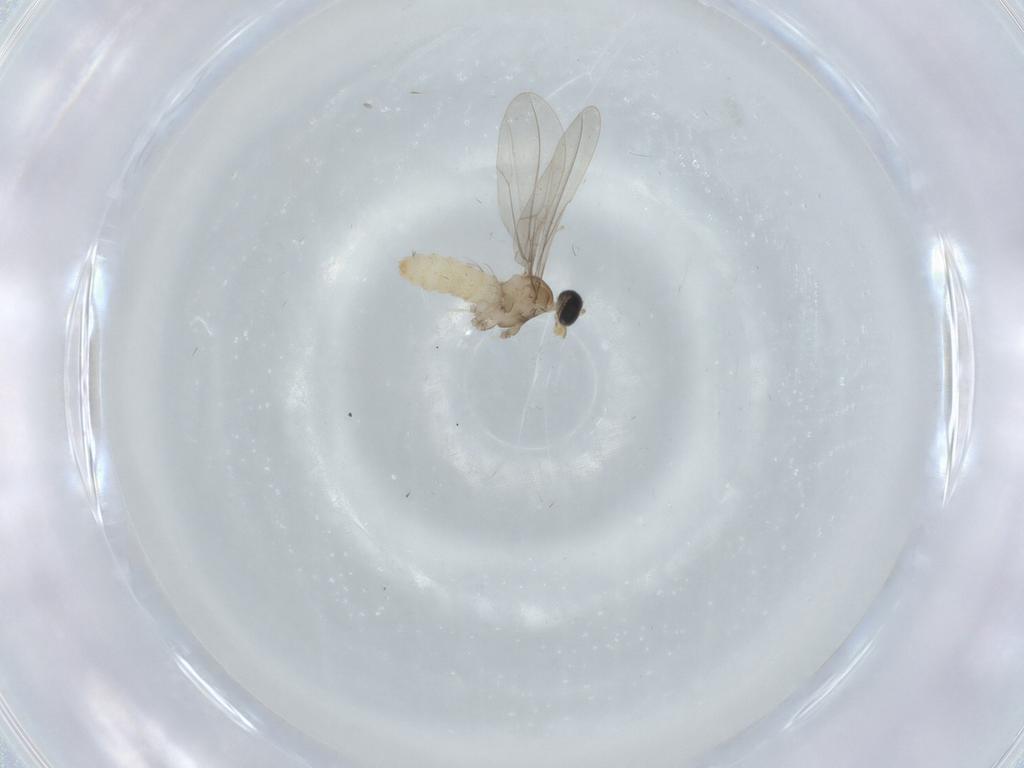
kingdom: Animalia
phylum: Arthropoda
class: Insecta
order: Diptera
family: Cecidomyiidae
